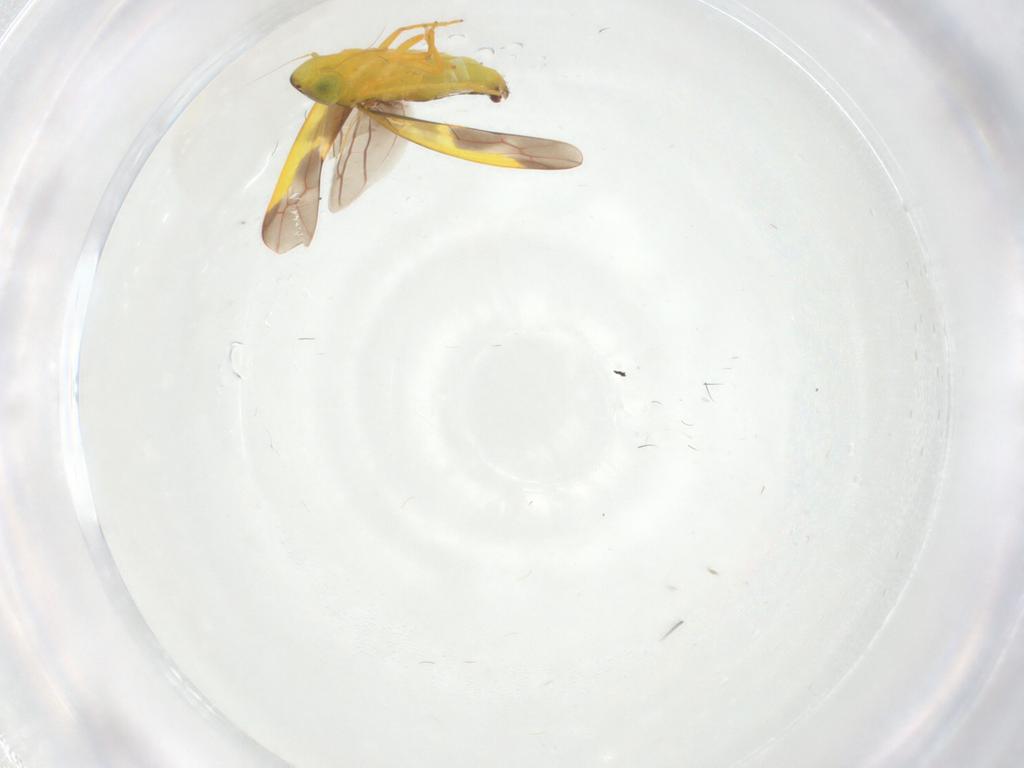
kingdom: Animalia
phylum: Arthropoda
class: Insecta
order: Hemiptera
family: Cicadellidae
